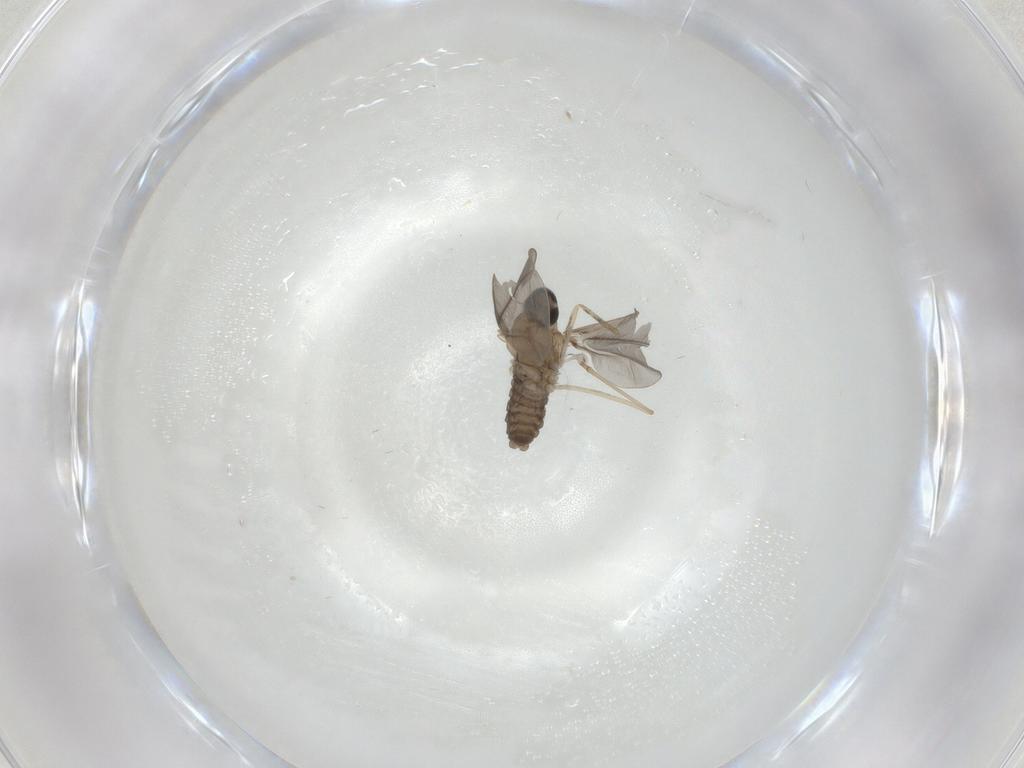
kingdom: Animalia
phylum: Arthropoda
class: Insecta
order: Diptera
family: Cecidomyiidae
